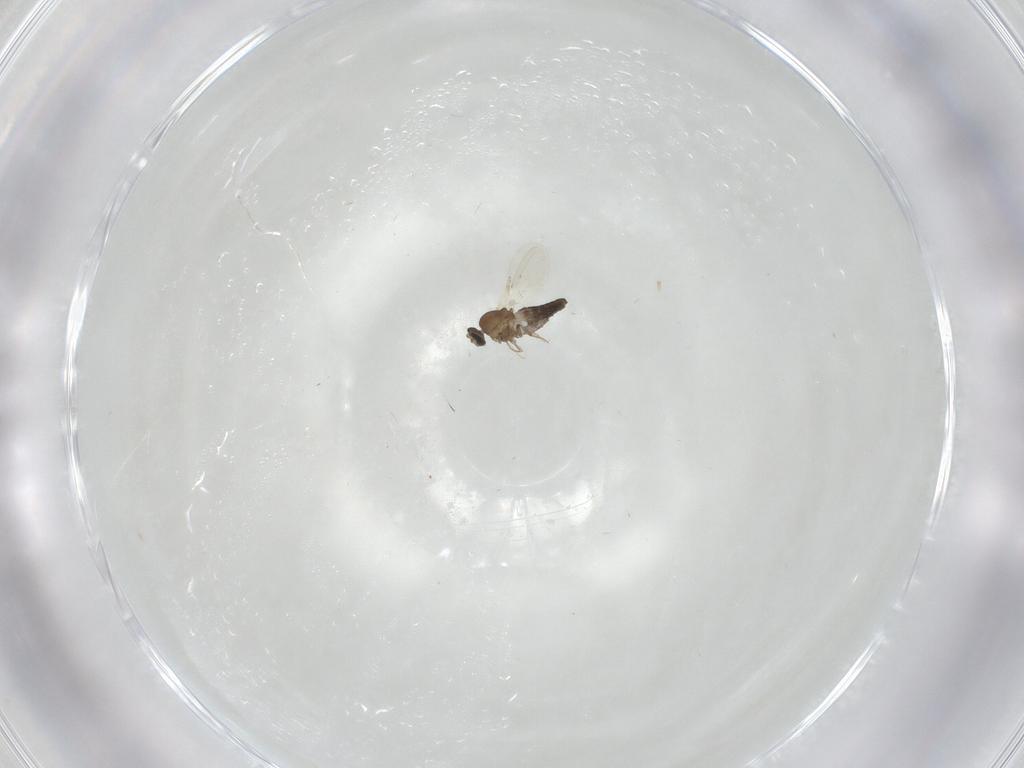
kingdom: Animalia
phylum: Arthropoda
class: Insecta
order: Diptera
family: Ceratopogonidae
